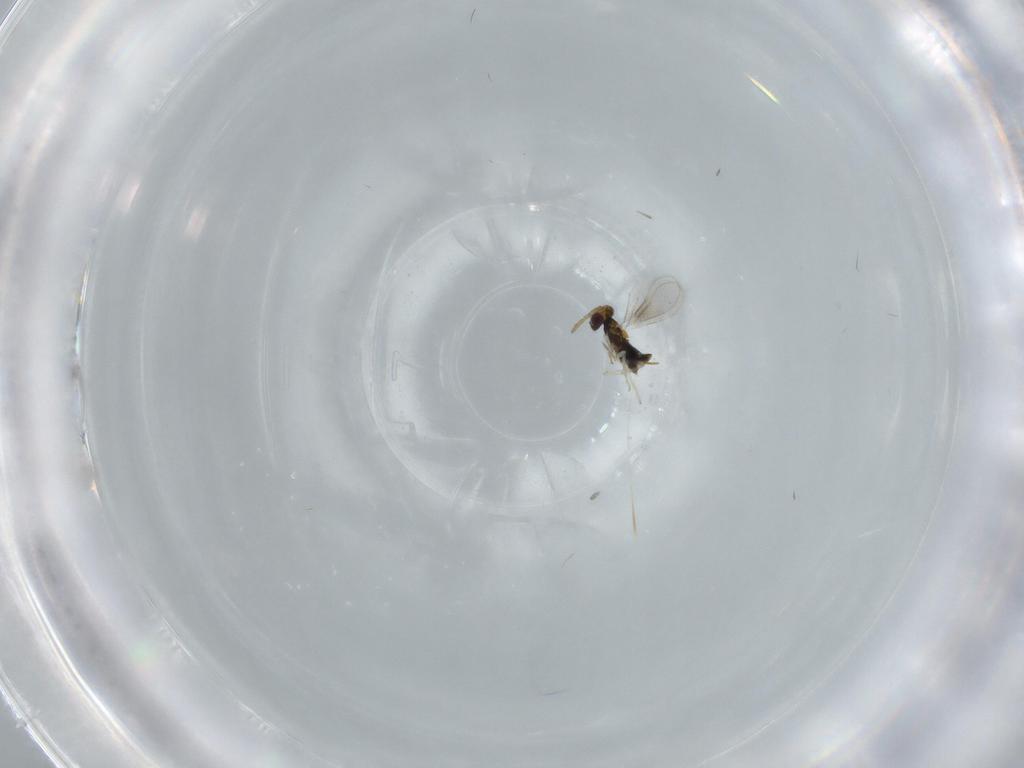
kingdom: Animalia
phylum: Arthropoda
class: Insecta
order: Hymenoptera
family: Aphelinidae
